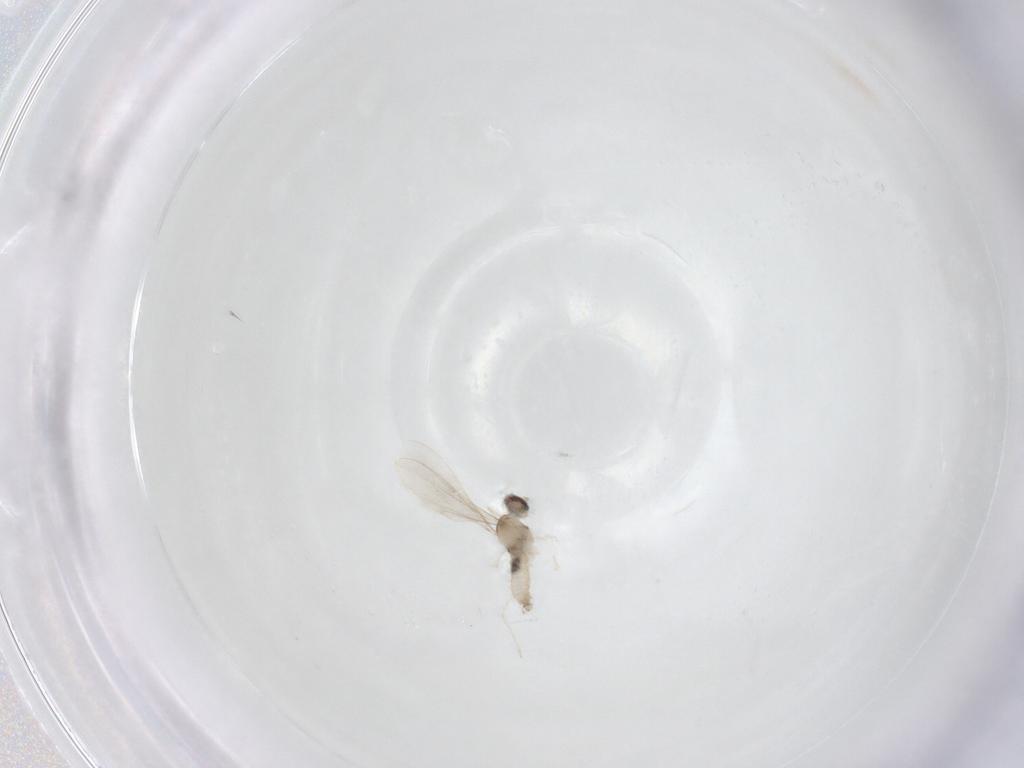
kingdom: Animalia
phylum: Arthropoda
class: Insecta
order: Diptera
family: Cecidomyiidae
